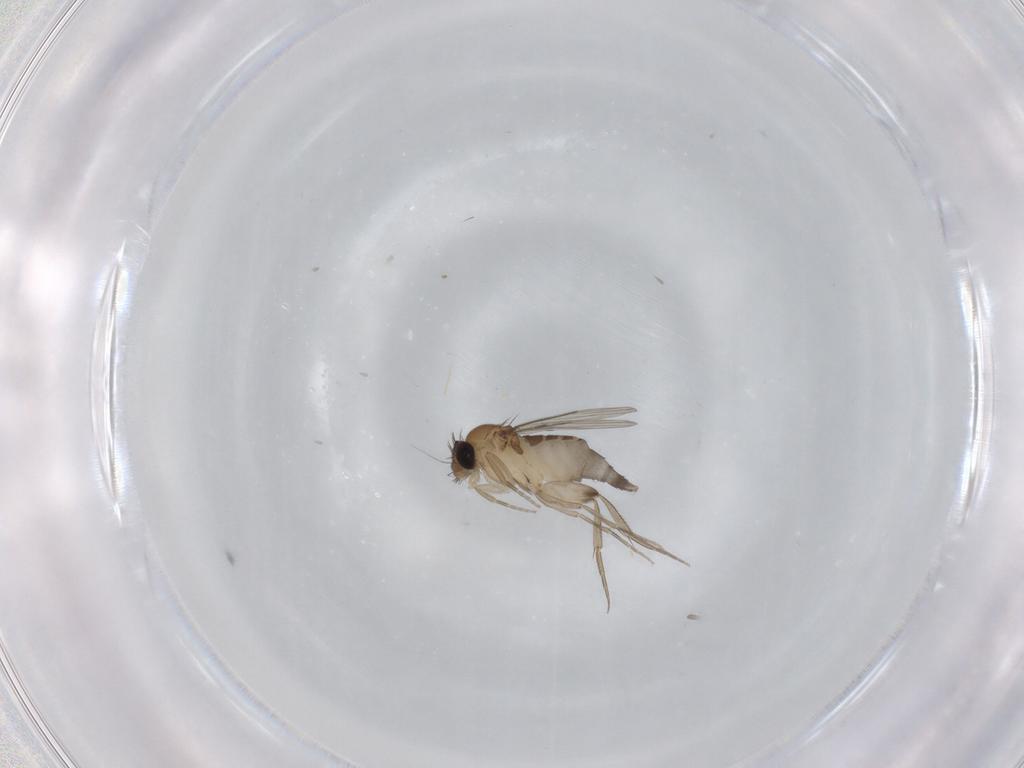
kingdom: Animalia
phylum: Arthropoda
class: Insecta
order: Diptera
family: Phoridae
